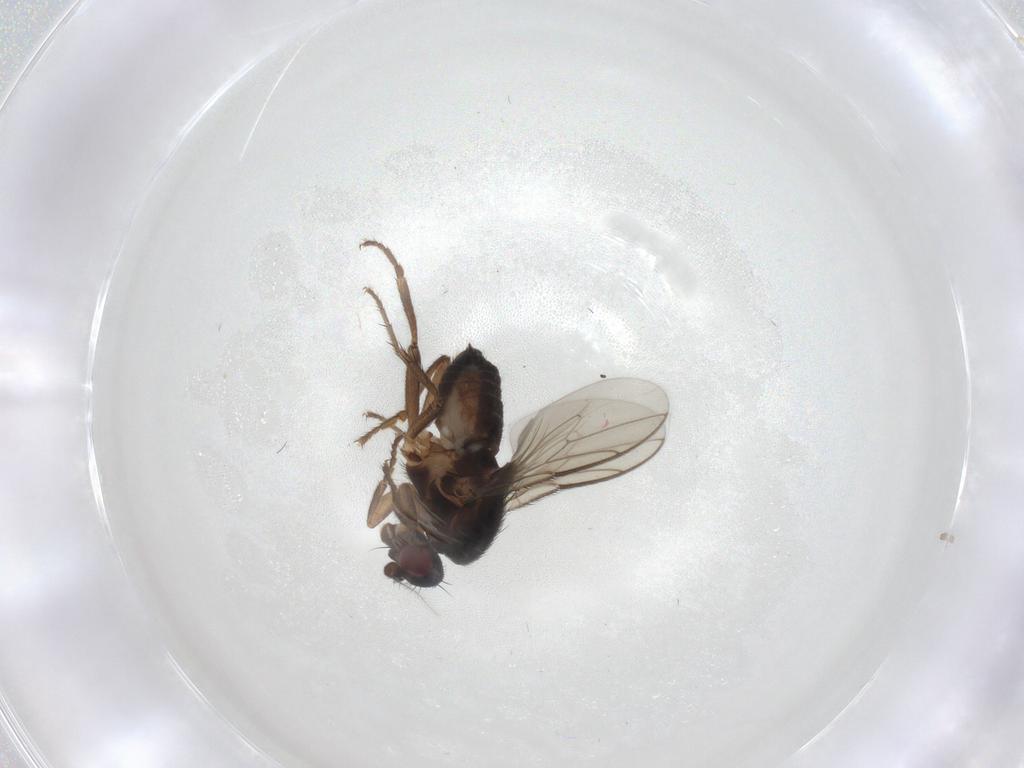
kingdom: Animalia
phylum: Arthropoda
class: Insecta
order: Diptera
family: Sphaeroceridae
